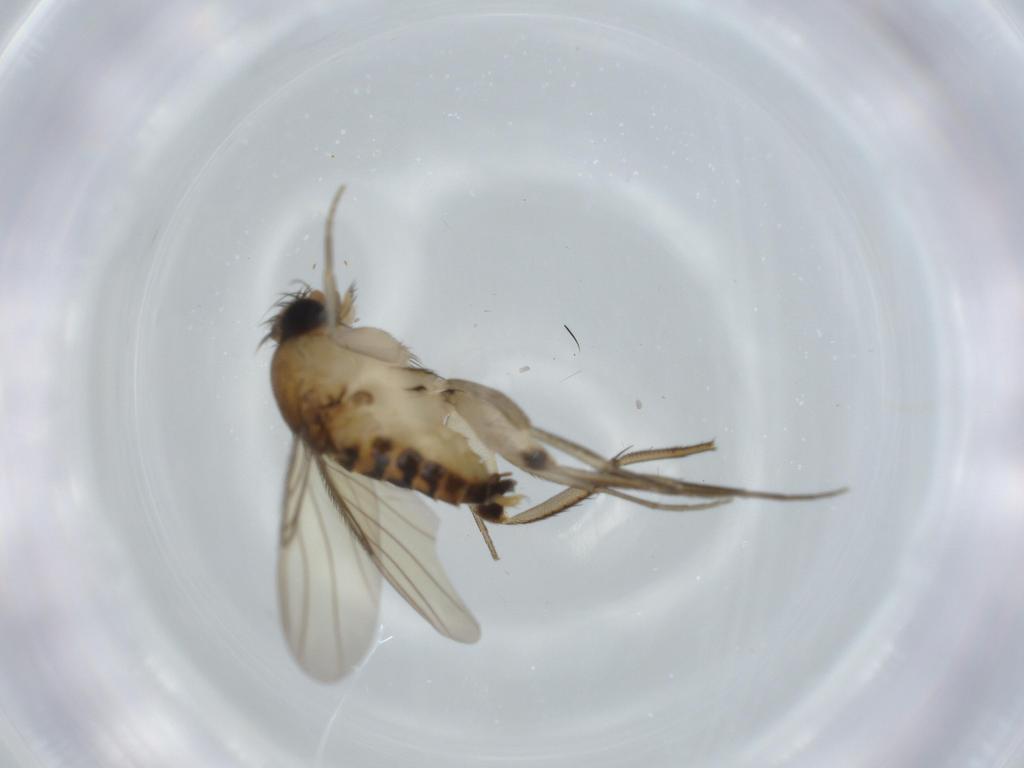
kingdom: Animalia
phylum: Arthropoda
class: Insecta
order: Diptera
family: Phoridae
